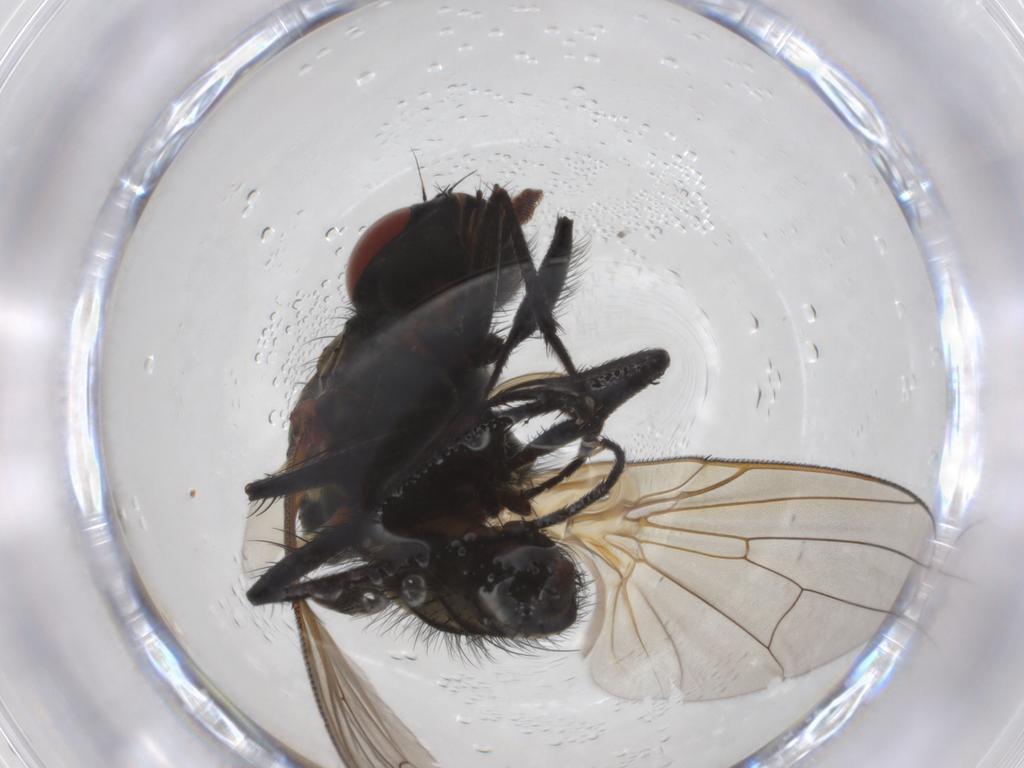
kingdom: Animalia
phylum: Arthropoda
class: Insecta
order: Diptera
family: Anthomyiidae
